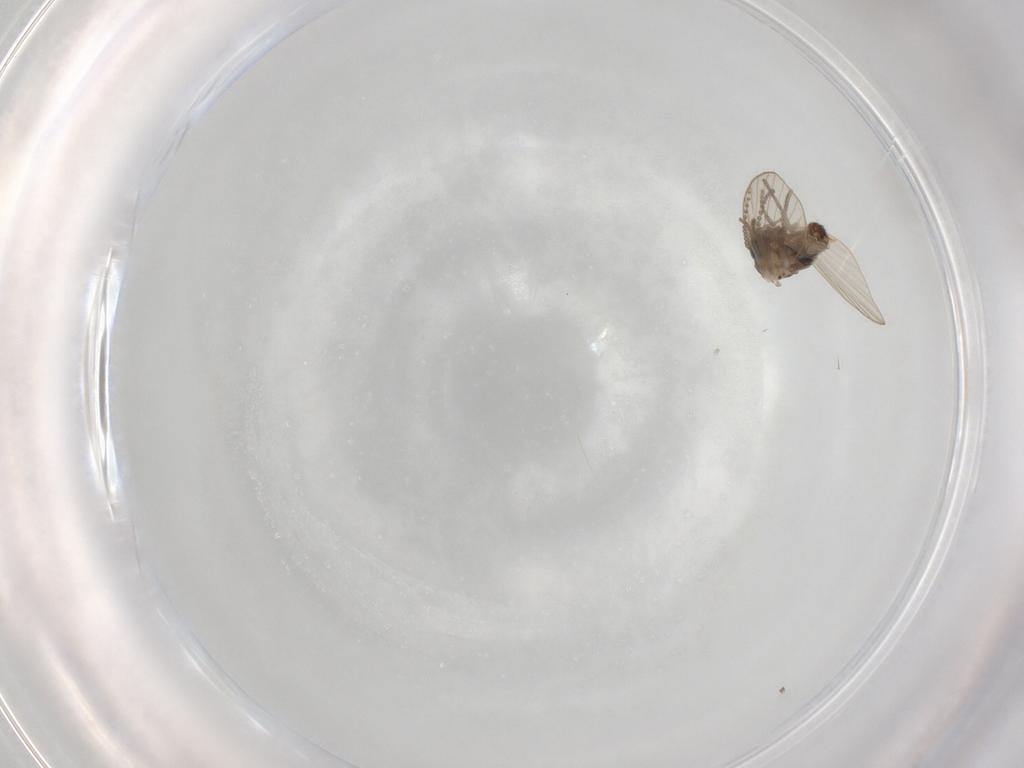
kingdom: Animalia
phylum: Arthropoda
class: Insecta
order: Diptera
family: Psychodidae
